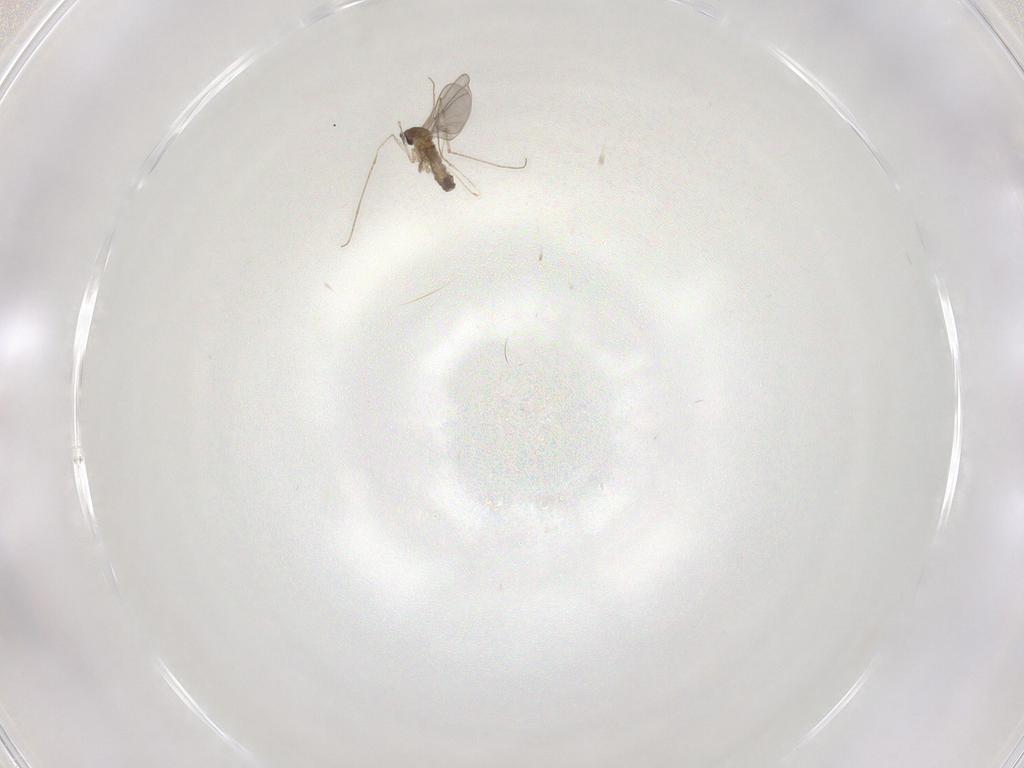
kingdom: Animalia
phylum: Arthropoda
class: Insecta
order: Diptera
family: Cecidomyiidae
